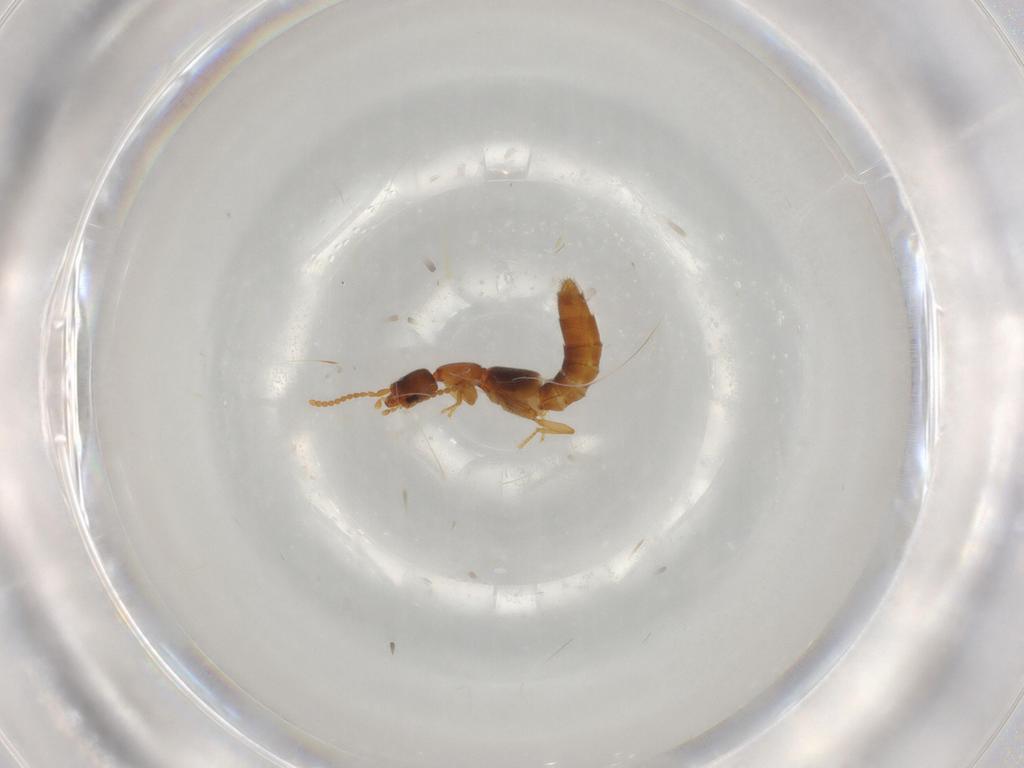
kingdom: Animalia
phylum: Arthropoda
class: Insecta
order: Coleoptera
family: Staphylinidae
